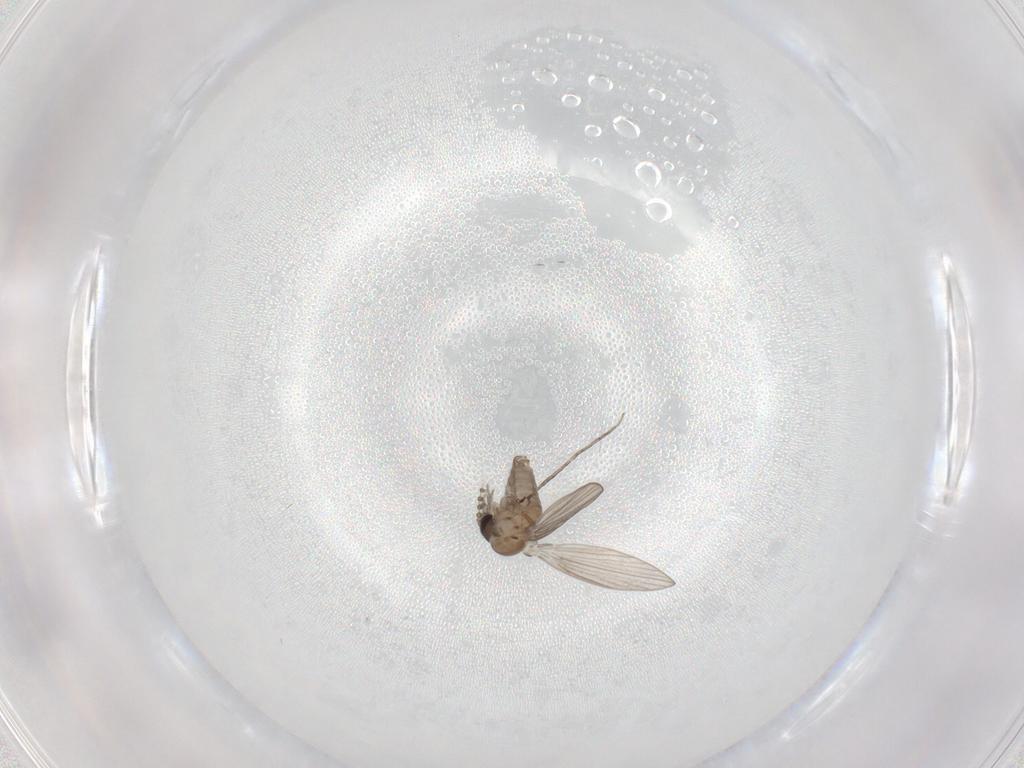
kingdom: Animalia
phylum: Arthropoda
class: Insecta
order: Diptera
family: Psychodidae
